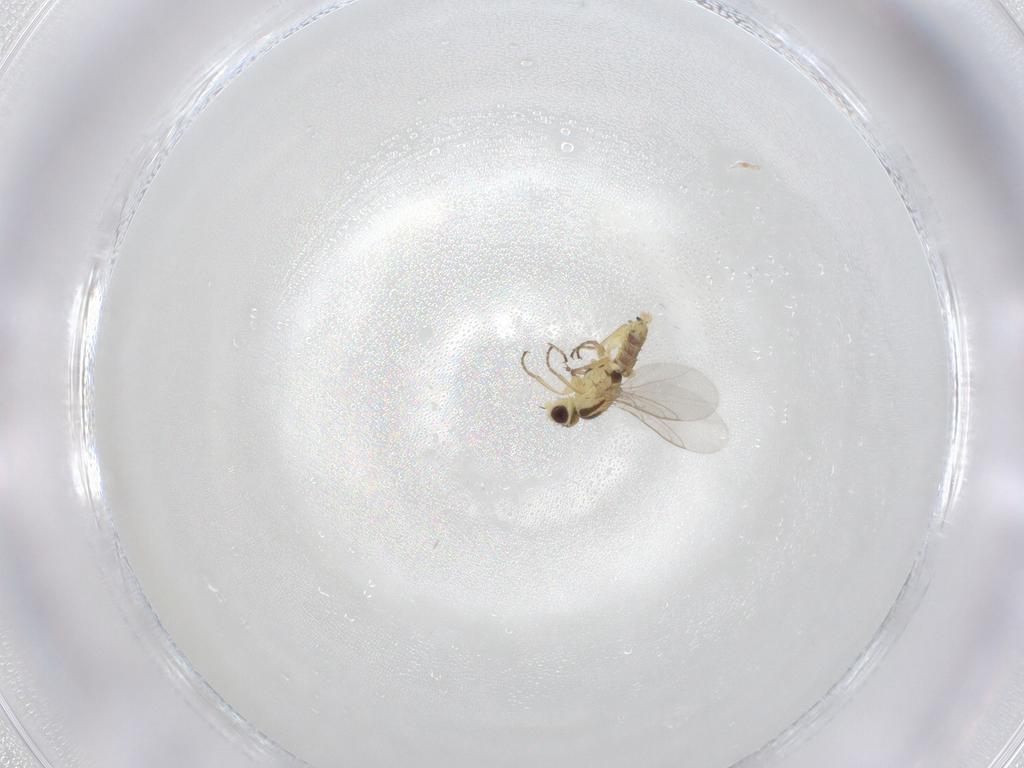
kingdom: Animalia
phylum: Arthropoda
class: Insecta
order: Diptera
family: Agromyzidae
